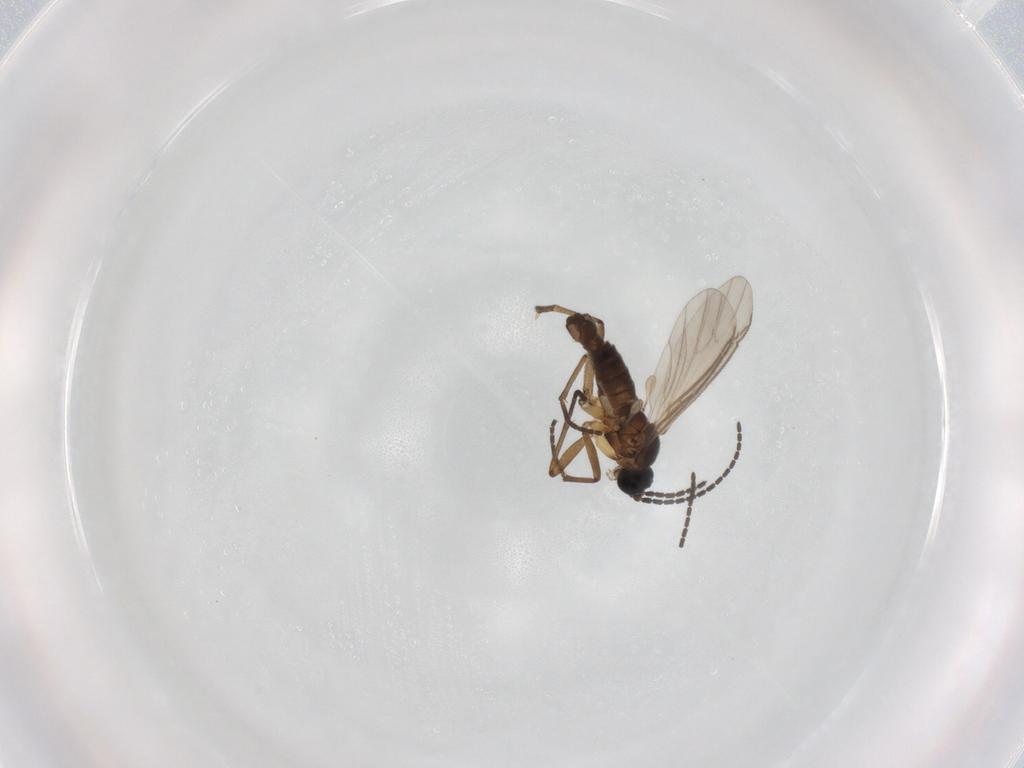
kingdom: Animalia
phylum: Arthropoda
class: Insecta
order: Diptera
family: Sciaridae
